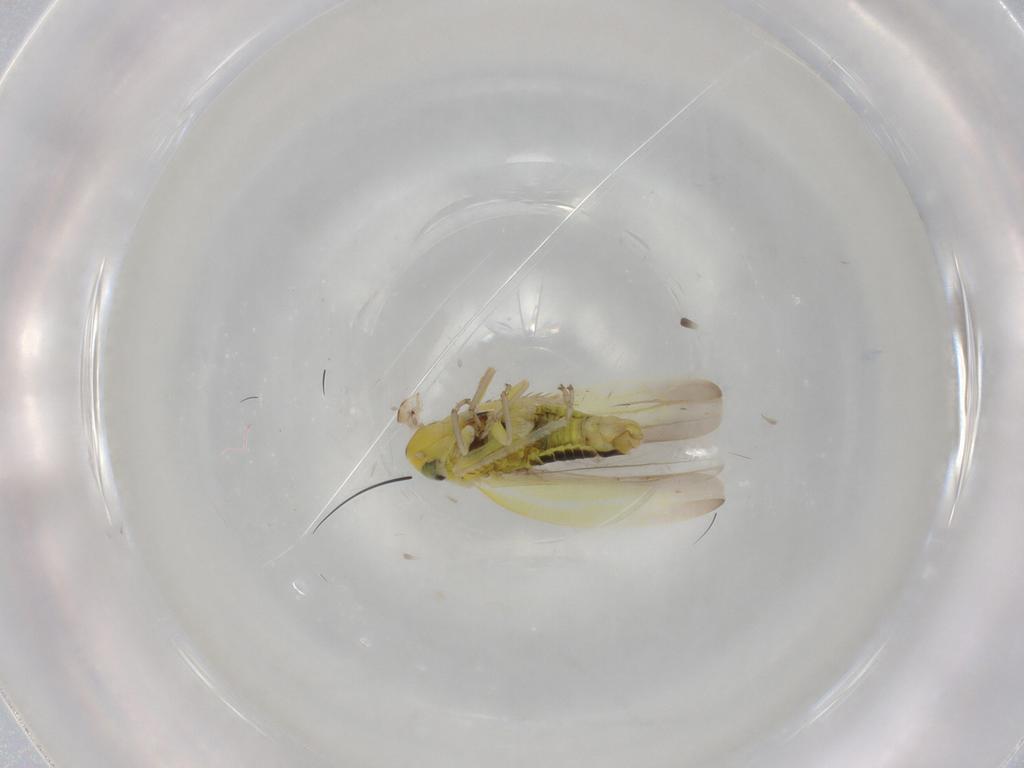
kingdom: Animalia
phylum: Arthropoda
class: Insecta
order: Hemiptera
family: Cicadellidae
